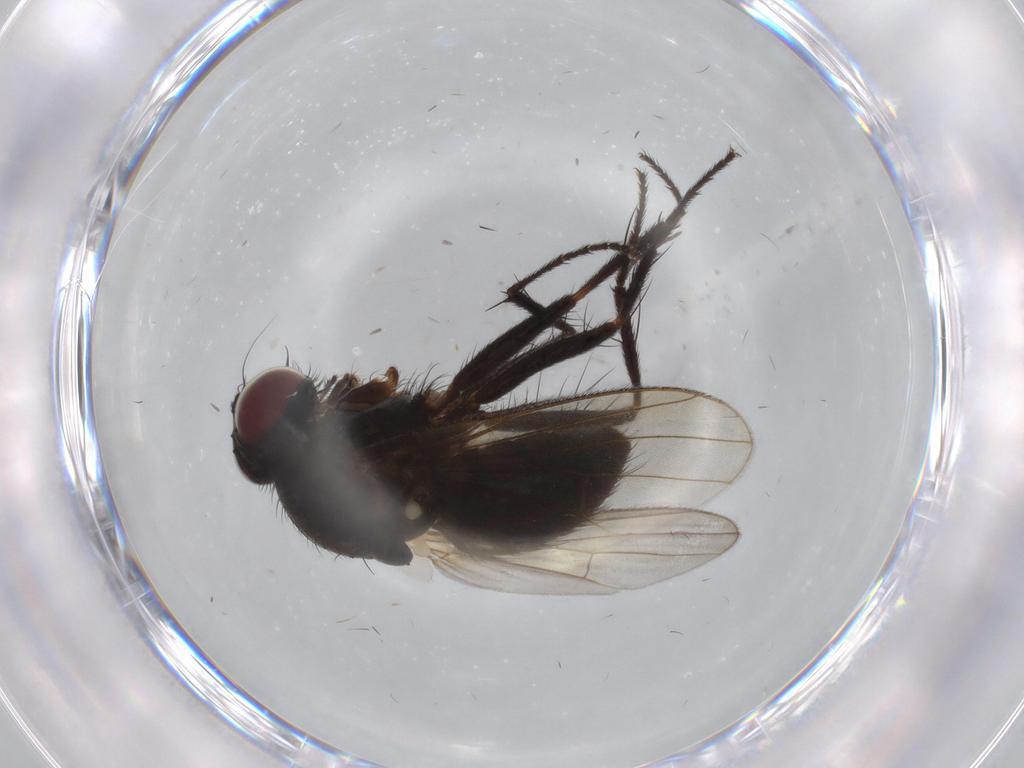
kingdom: Animalia
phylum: Arthropoda
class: Insecta
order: Diptera
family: Muscidae
